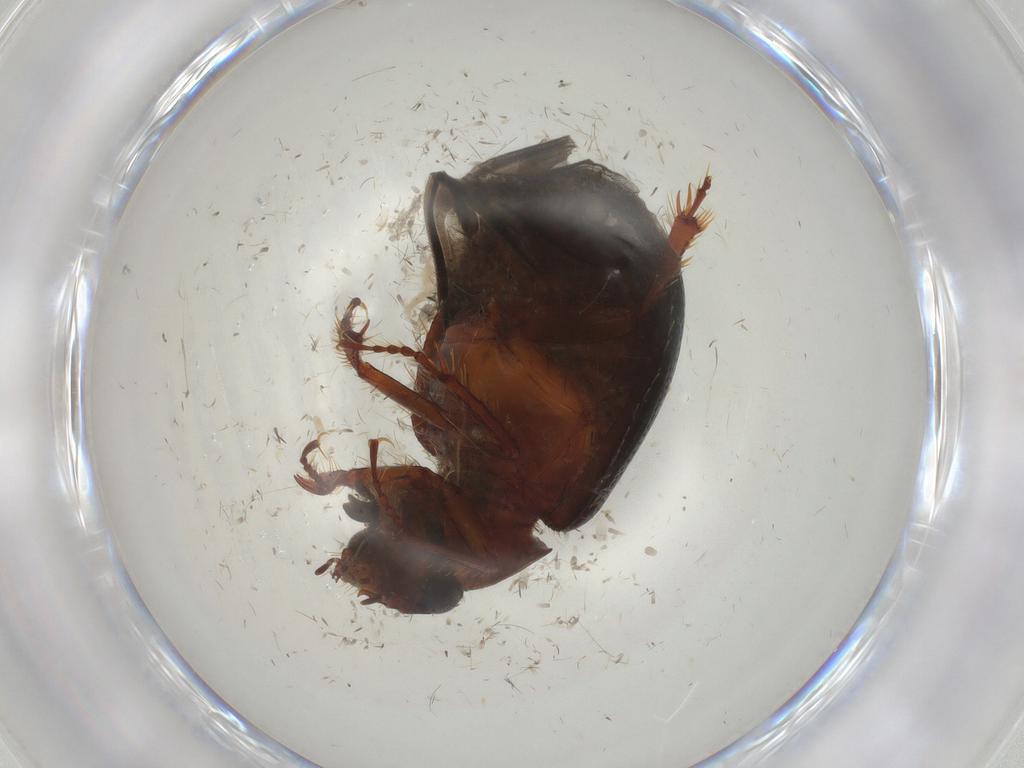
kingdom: Animalia
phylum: Arthropoda
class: Insecta
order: Coleoptera
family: Hybosoridae
